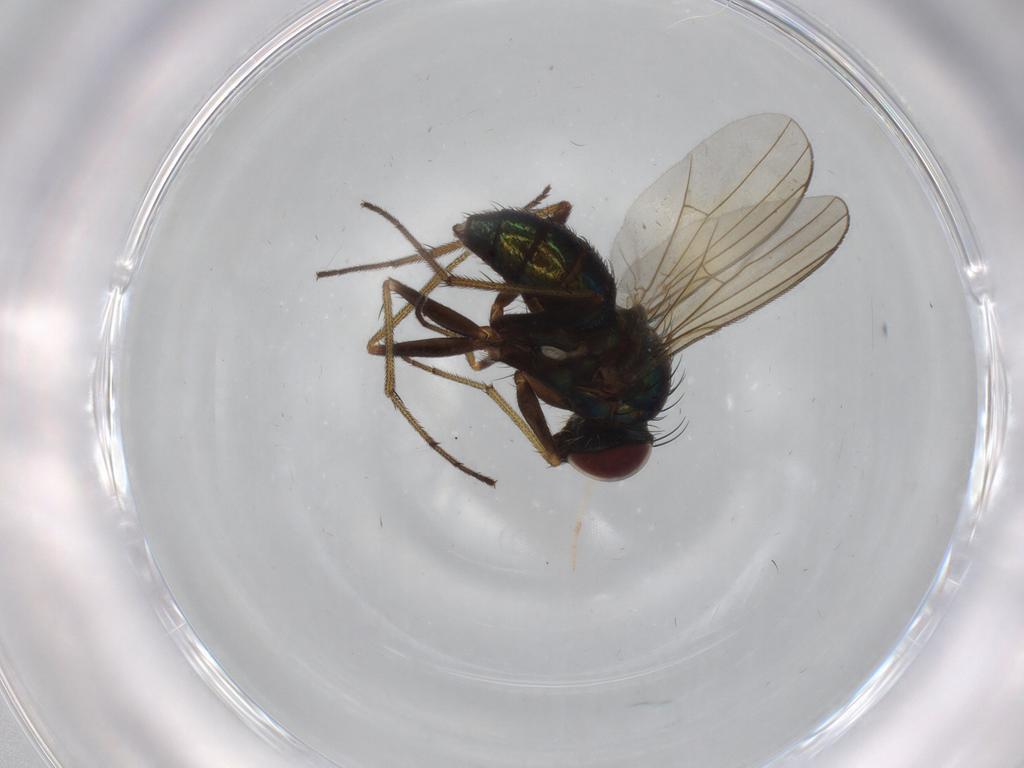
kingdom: Animalia
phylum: Arthropoda
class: Insecta
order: Diptera
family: Dolichopodidae
